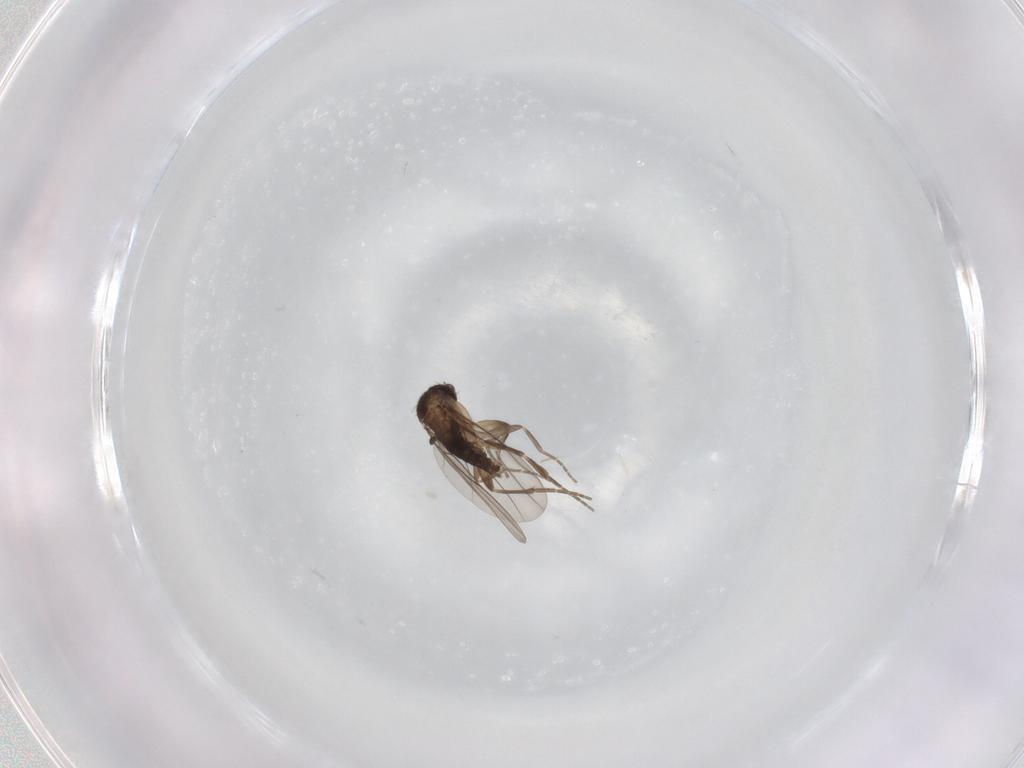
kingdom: Animalia
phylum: Arthropoda
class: Insecta
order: Diptera
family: Phoridae
